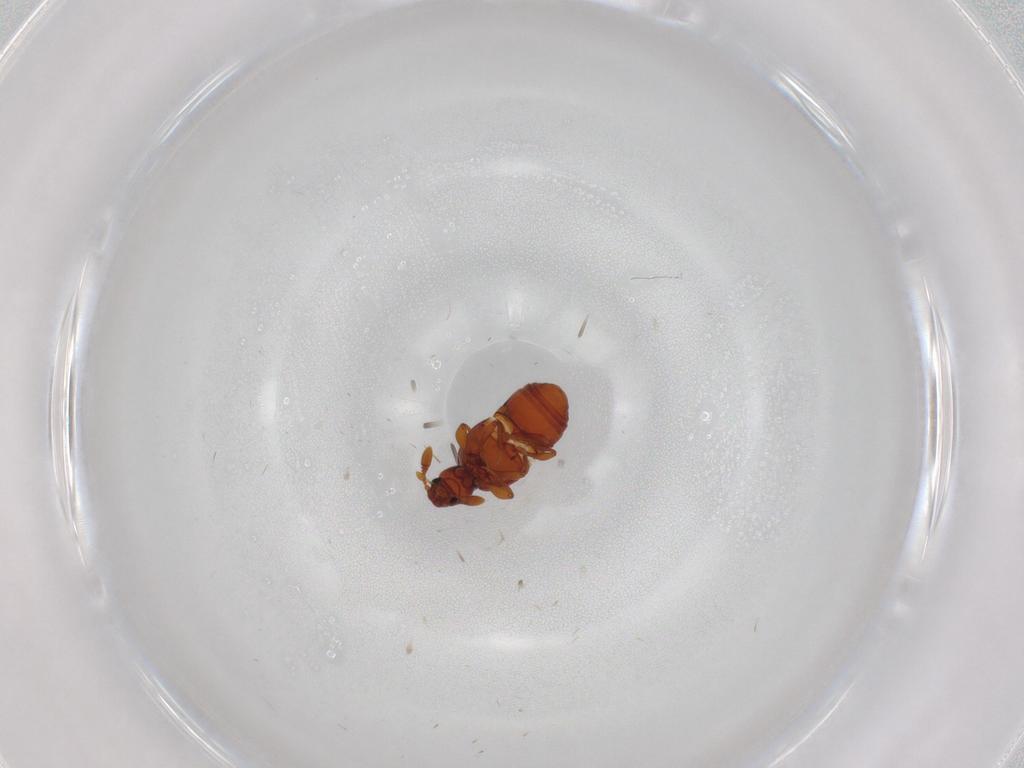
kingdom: Animalia
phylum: Arthropoda
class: Insecta
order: Coleoptera
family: Staphylinidae
